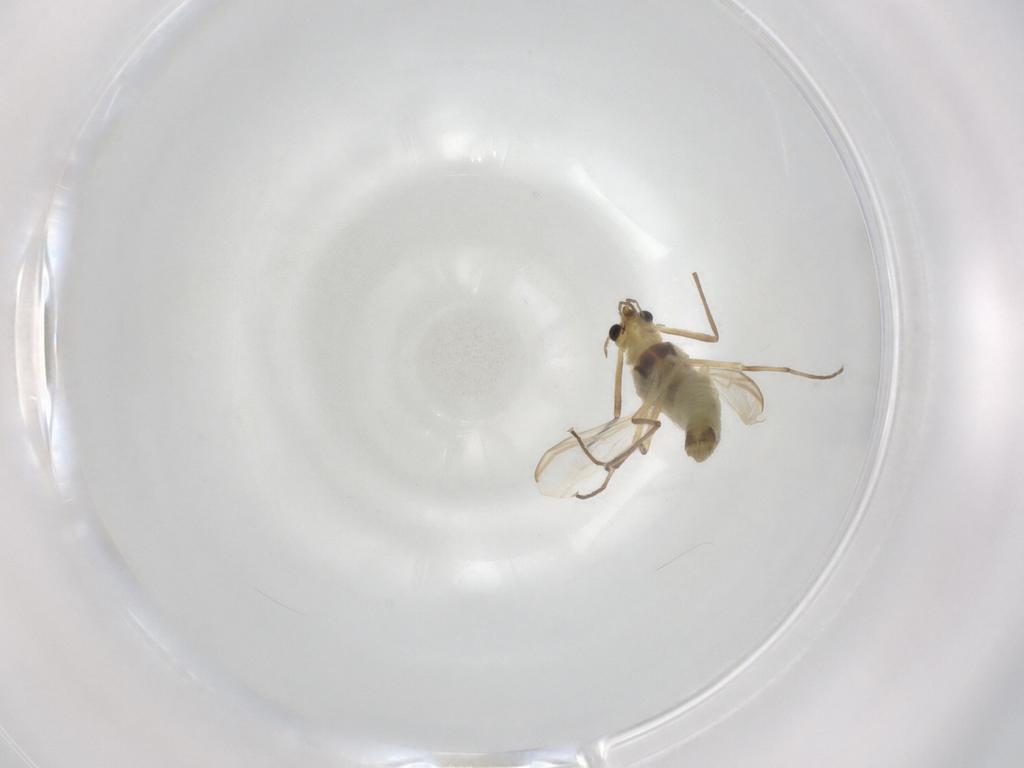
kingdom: Animalia
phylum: Arthropoda
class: Insecta
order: Diptera
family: Chironomidae
